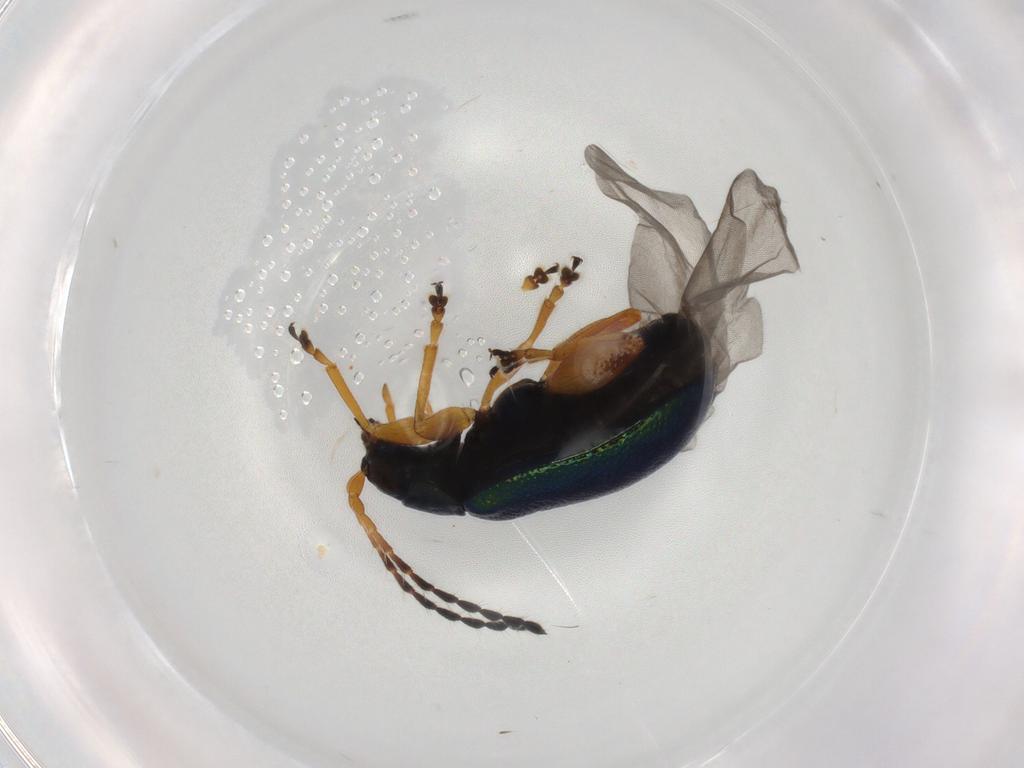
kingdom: Animalia
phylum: Arthropoda
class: Insecta
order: Coleoptera
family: Chrysomelidae
